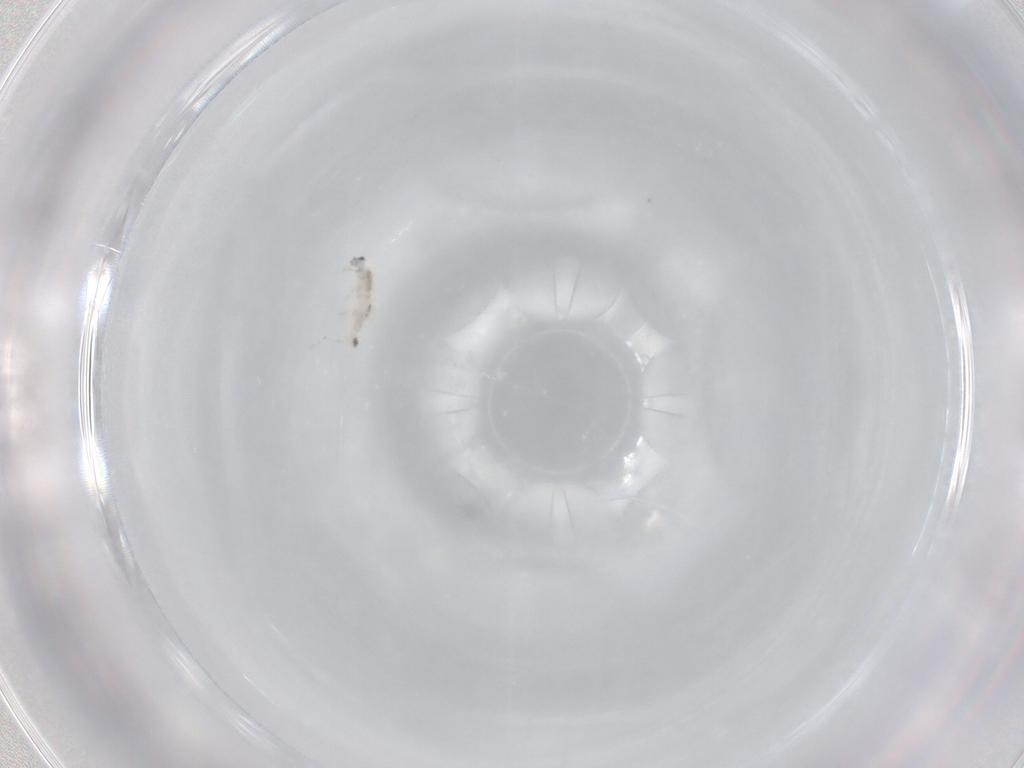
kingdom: Animalia
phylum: Arthropoda
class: Collembola
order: Entomobryomorpha
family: Entomobryidae
